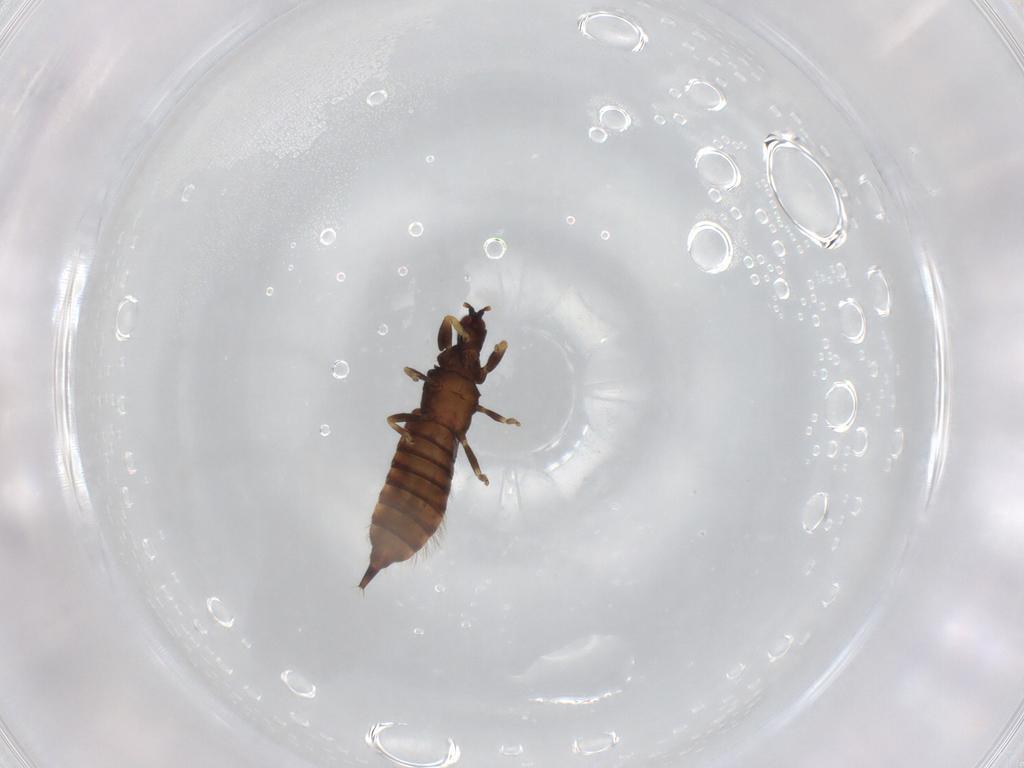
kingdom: Animalia
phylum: Arthropoda
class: Insecta
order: Thysanoptera
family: Phlaeothripidae
